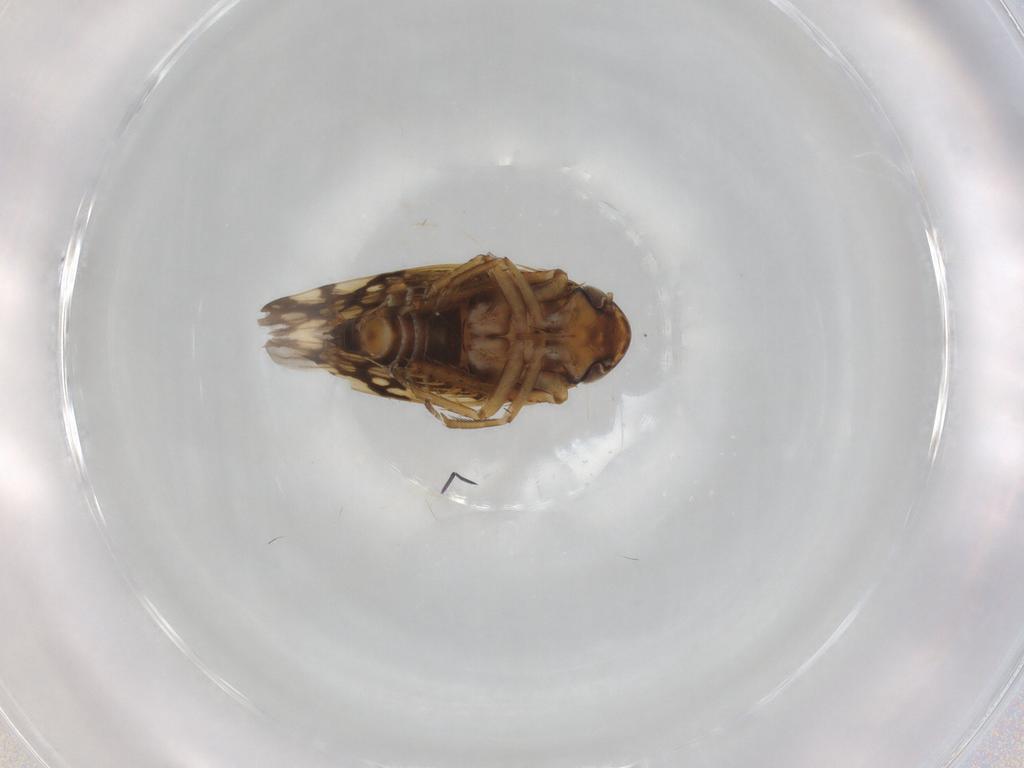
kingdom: Animalia
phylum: Arthropoda
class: Insecta
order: Hemiptera
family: Cicadellidae
